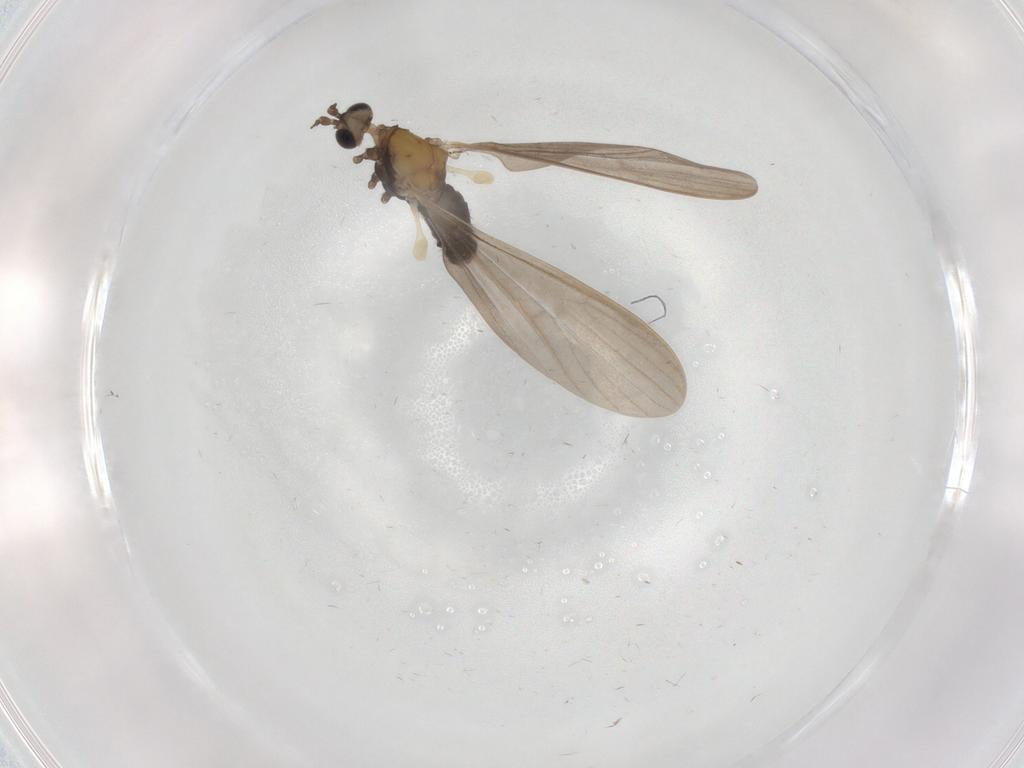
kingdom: Animalia
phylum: Arthropoda
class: Insecta
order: Diptera
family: Limoniidae
